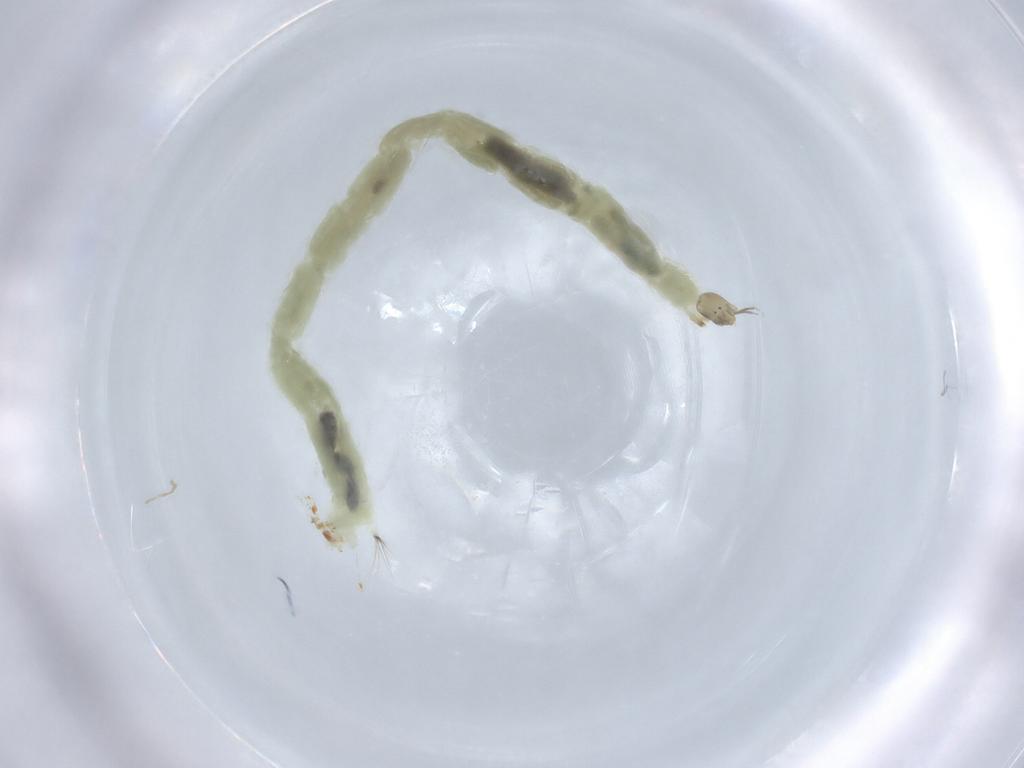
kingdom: Animalia
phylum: Arthropoda
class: Insecta
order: Diptera
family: Chironomidae
